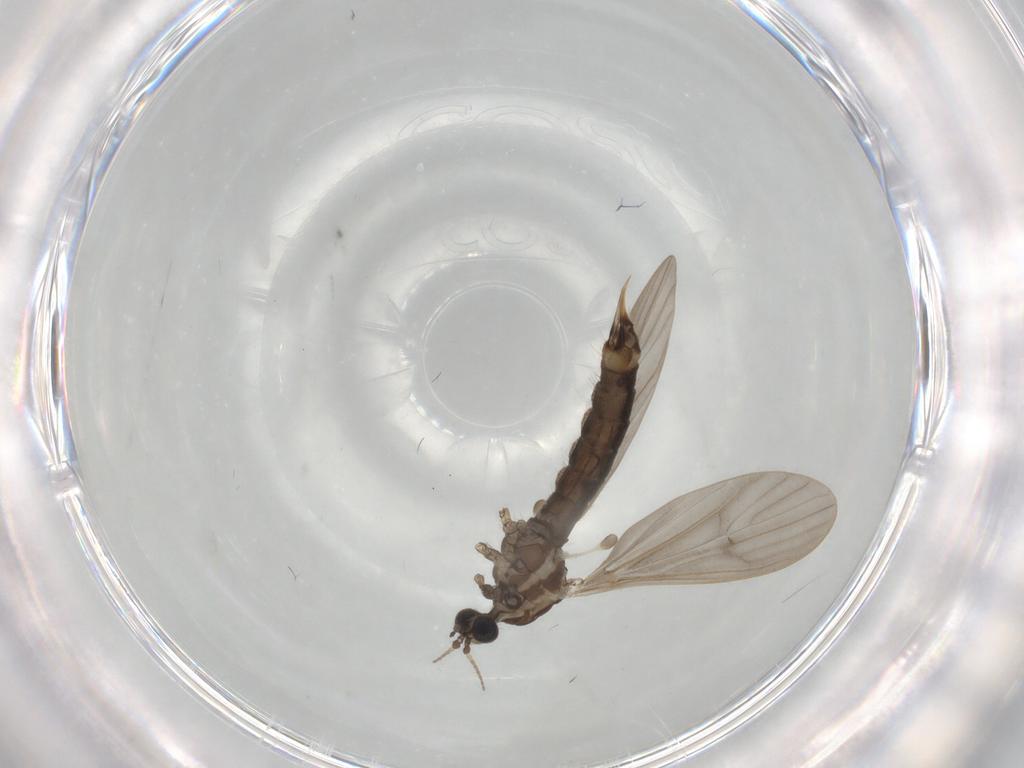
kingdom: Animalia
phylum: Arthropoda
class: Insecta
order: Diptera
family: Limoniidae
